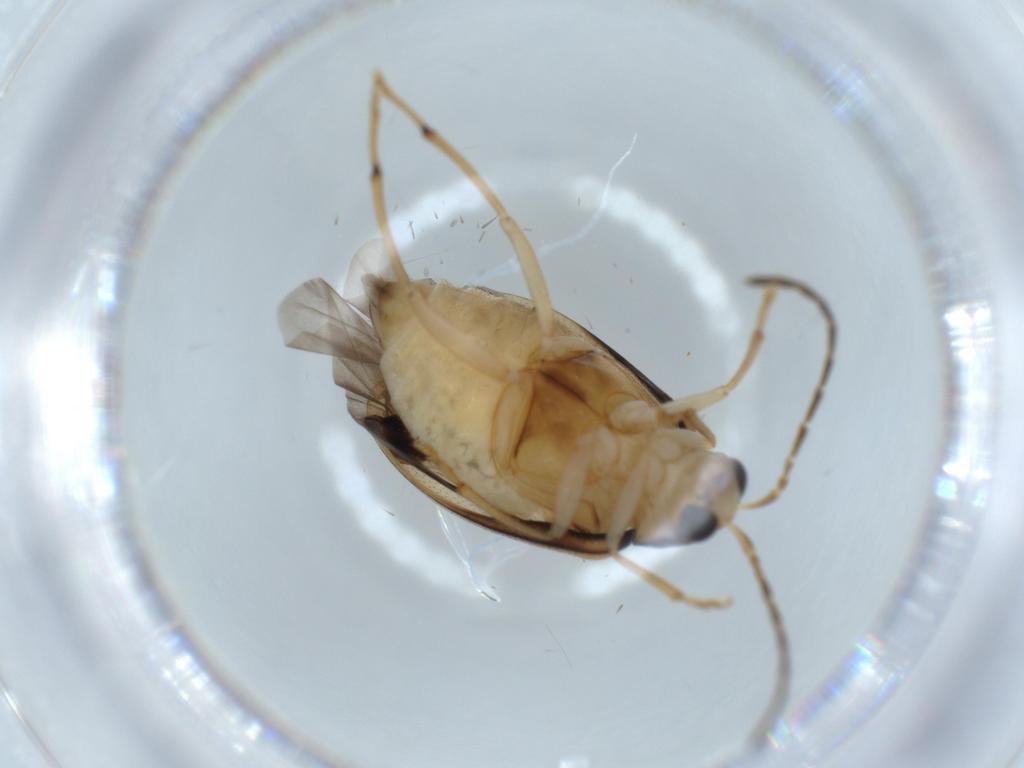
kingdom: Animalia
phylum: Arthropoda
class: Insecta
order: Coleoptera
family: Chrysomelidae
